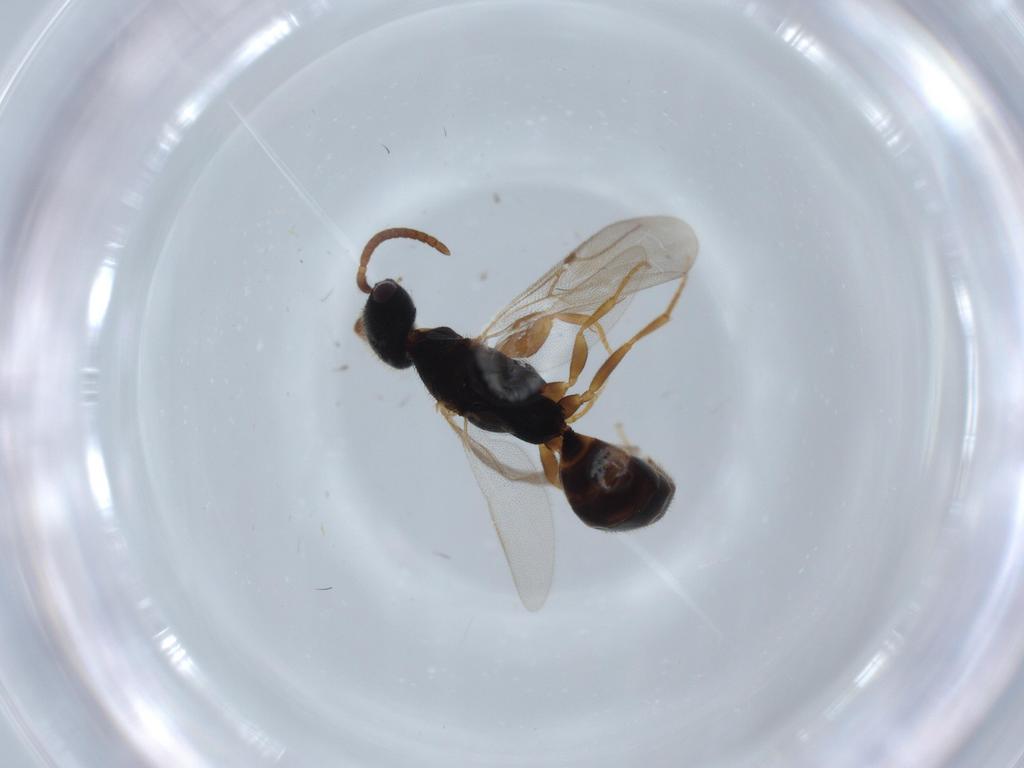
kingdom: Animalia
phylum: Arthropoda
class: Insecta
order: Hymenoptera
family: Bethylidae
